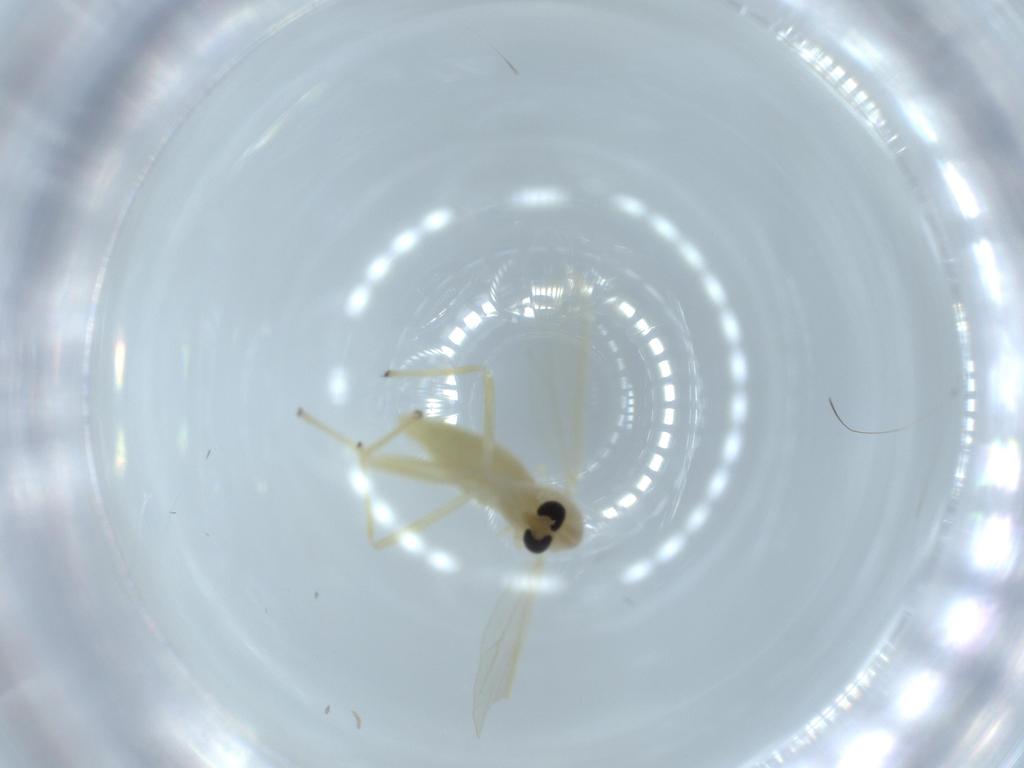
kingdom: Animalia
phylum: Arthropoda
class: Insecta
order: Diptera
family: Chironomidae
